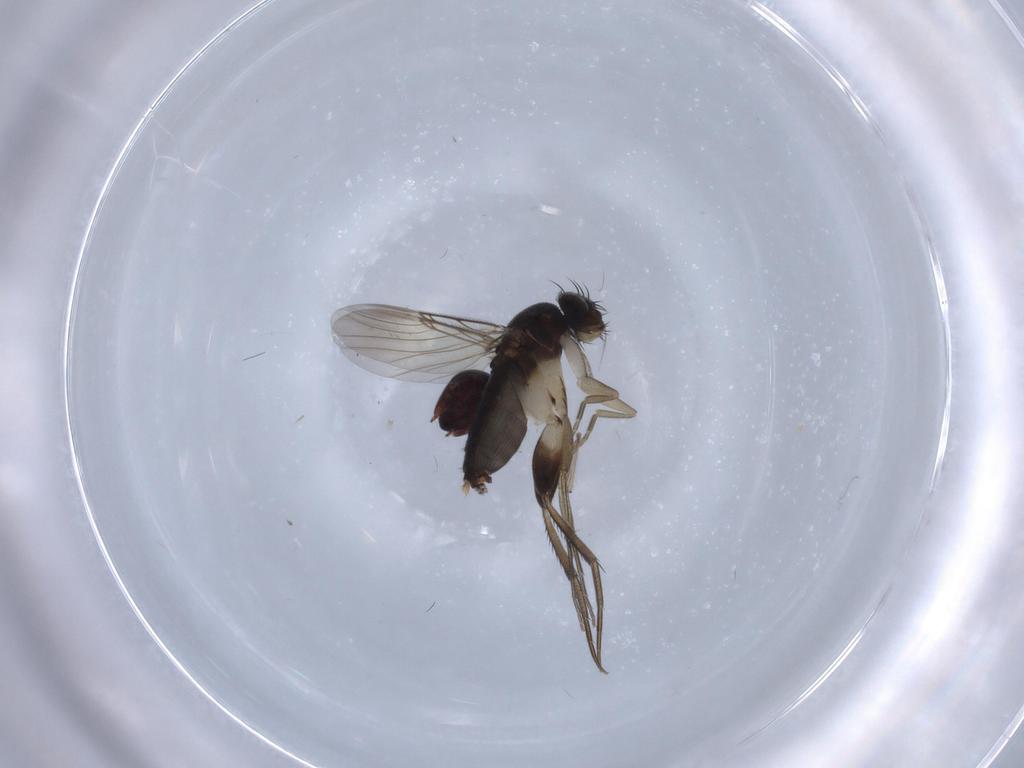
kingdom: Animalia
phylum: Arthropoda
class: Insecta
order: Diptera
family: Phoridae
